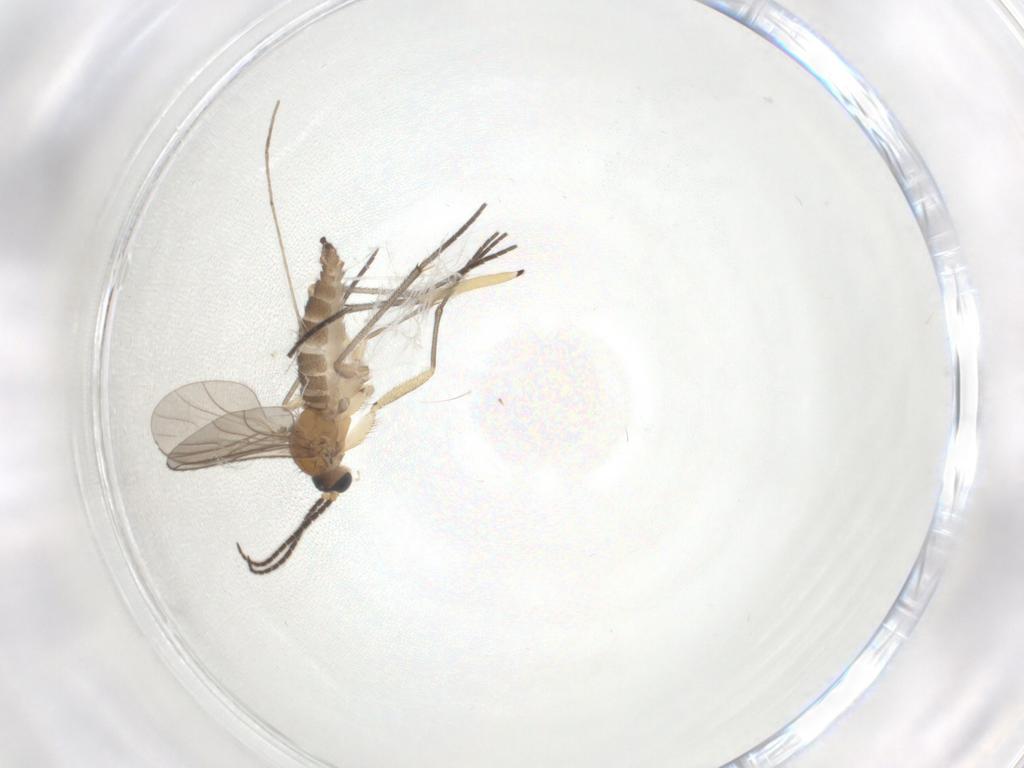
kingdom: Animalia
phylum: Arthropoda
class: Insecta
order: Diptera
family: Sciaridae
